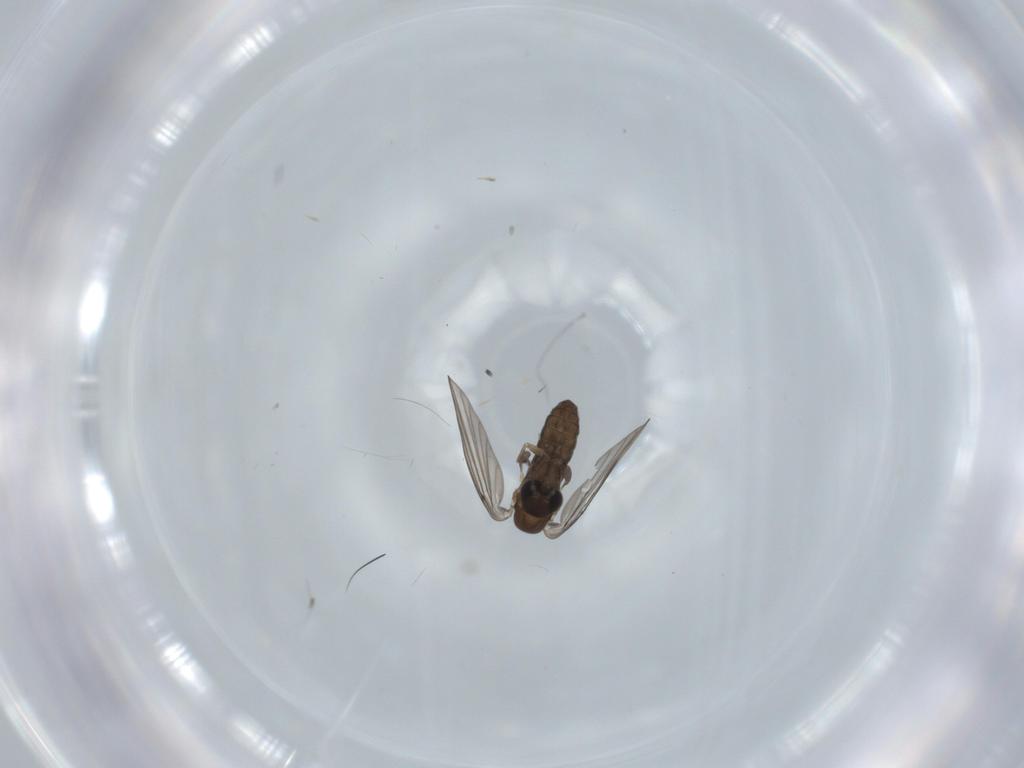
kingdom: Animalia
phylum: Arthropoda
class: Insecta
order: Diptera
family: Psychodidae
